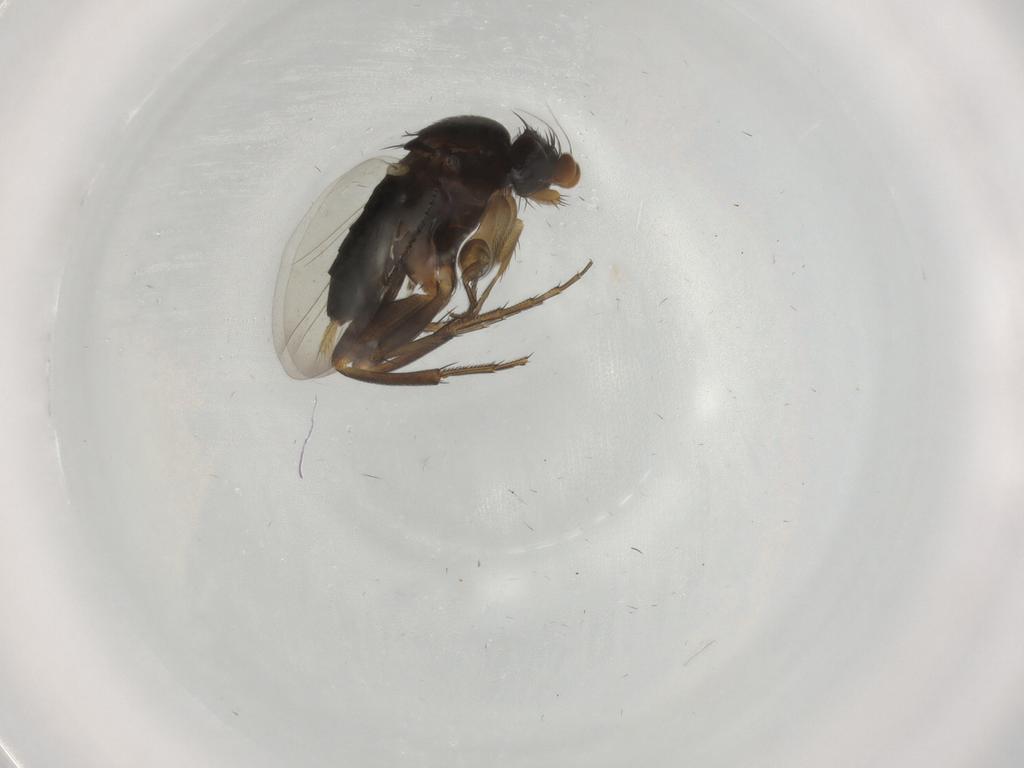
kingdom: Animalia
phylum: Arthropoda
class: Insecta
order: Diptera
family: Phoridae
